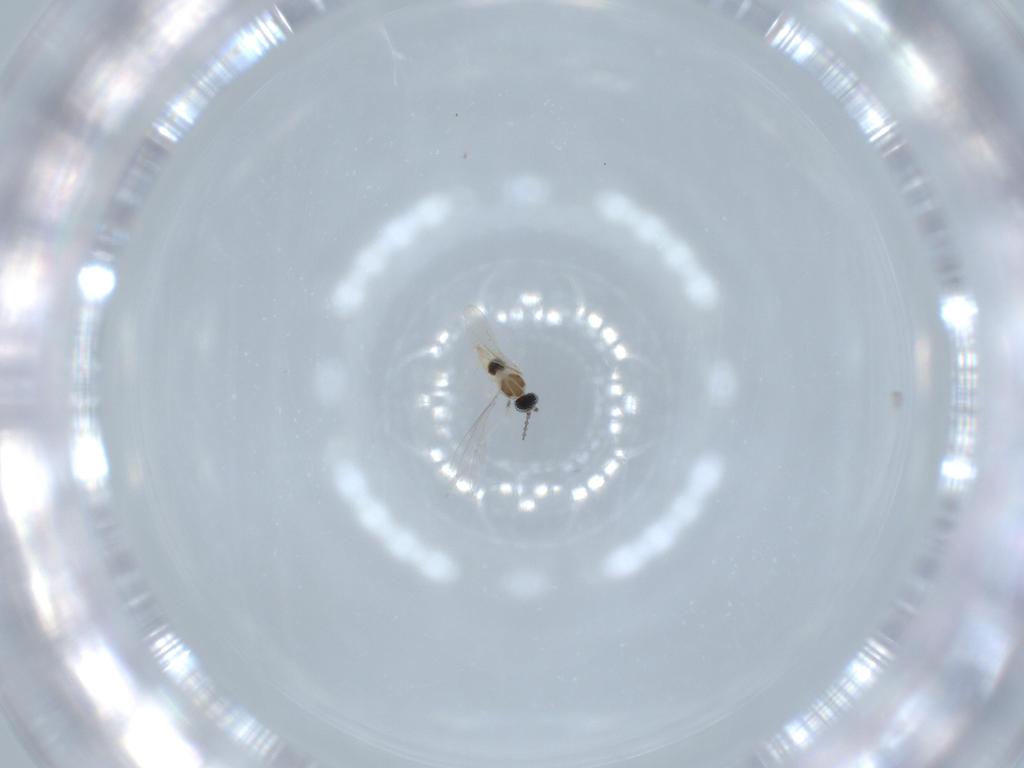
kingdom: Animalia
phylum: Arthropoda
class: Insecta
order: Diptera
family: Cecidomyiidae
